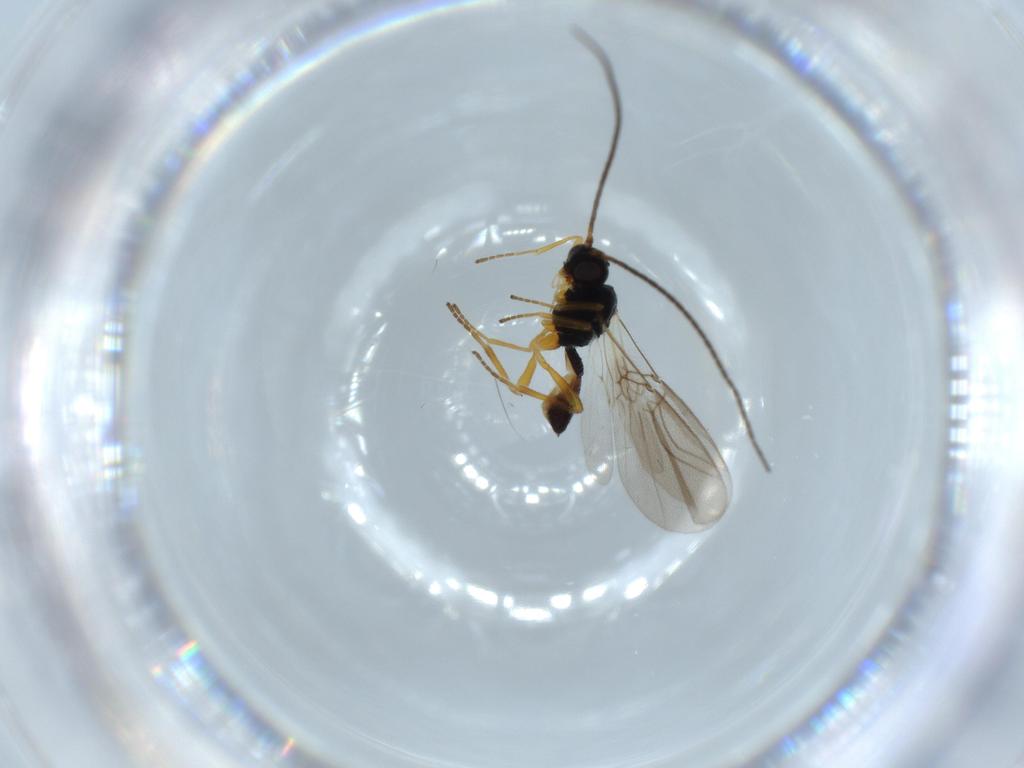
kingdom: Animalia
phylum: Arthropoda
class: Insecta
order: Hymenoptera
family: Braconidae
